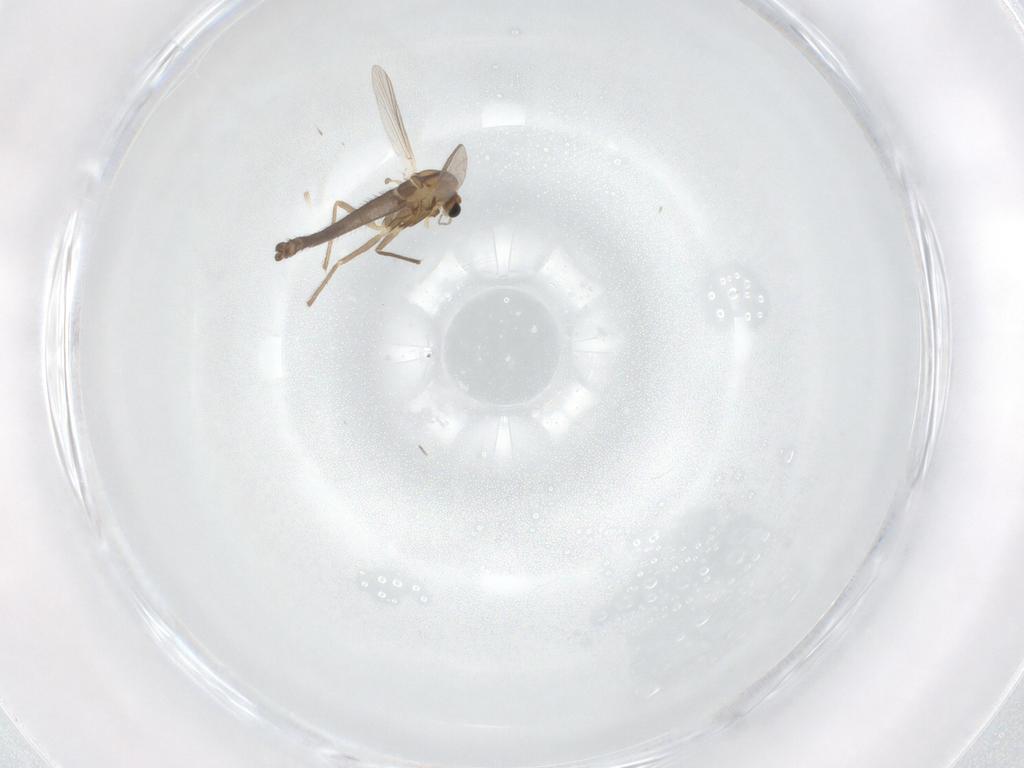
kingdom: Animalia
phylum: Arthropoda
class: Insecta
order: Diptera
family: Chironomidae
